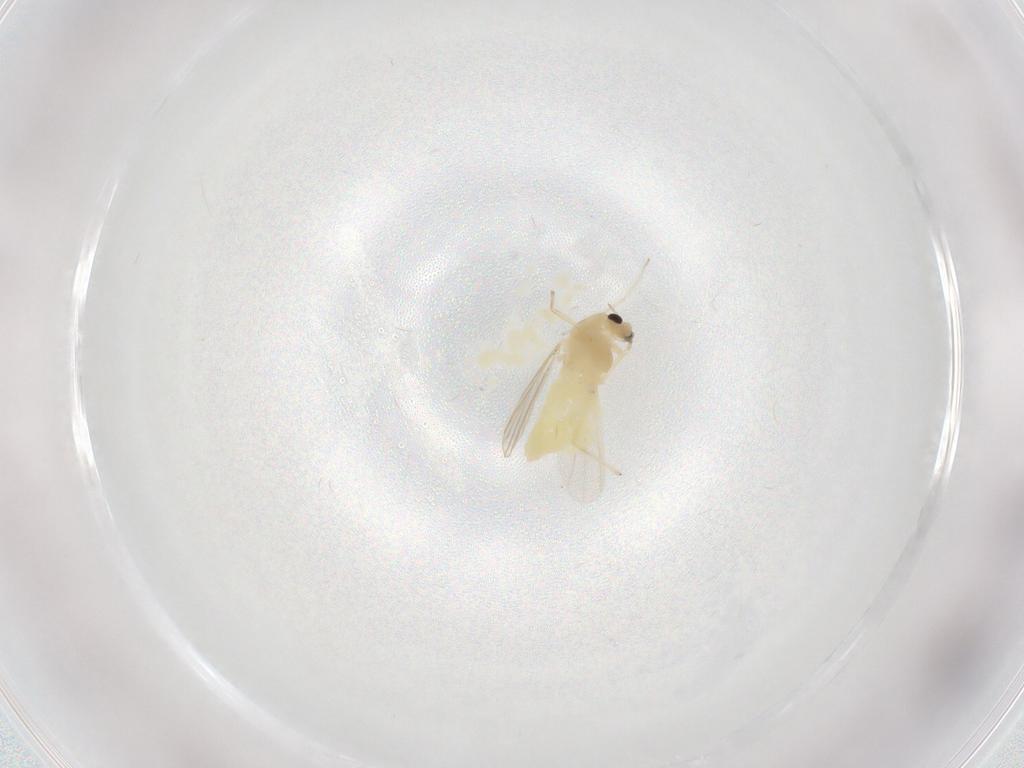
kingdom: Animalia
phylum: Arthropoda
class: Insecta
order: Diptera
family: Chironomidae
